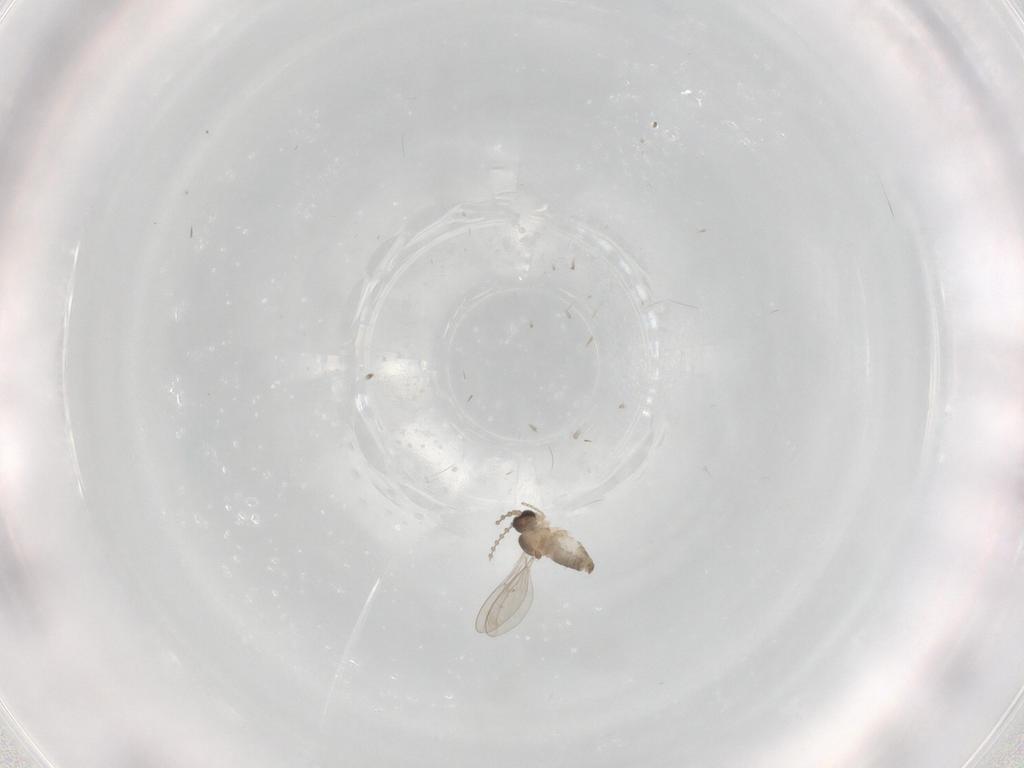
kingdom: Animalia
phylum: Arthropoda
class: Insecta
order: Diptera
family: Cecidomyiidae
